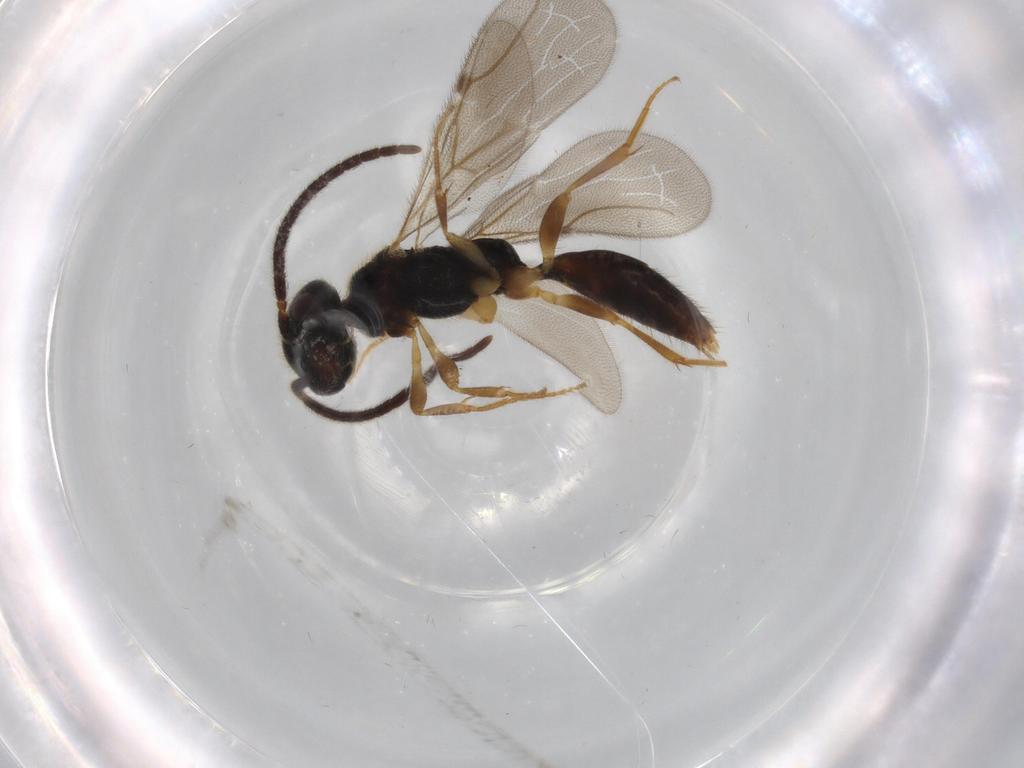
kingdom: Animalia
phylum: Arthropoda
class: Insecta
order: Hymenoptera
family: Bethylidae
